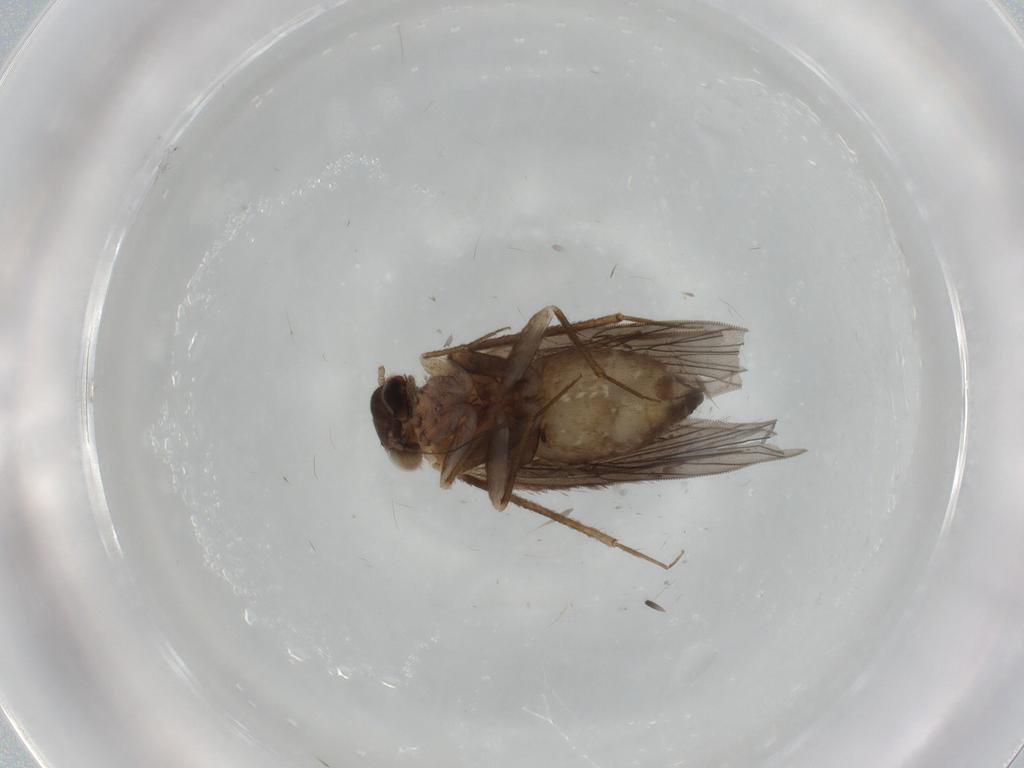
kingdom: Animalia
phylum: Arthropoda
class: Insecta
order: Psocodea
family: Lepidopsocidae
